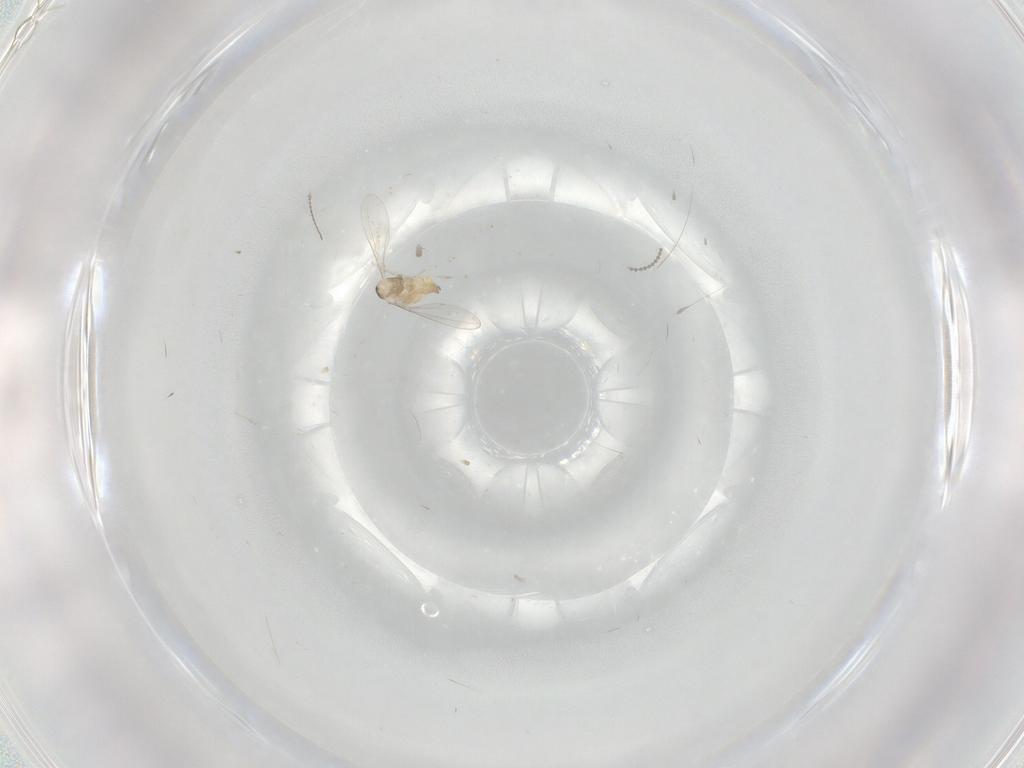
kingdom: Animalia
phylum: Arthropoda
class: Insecta
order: Diptera
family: Cecidomyiidae
